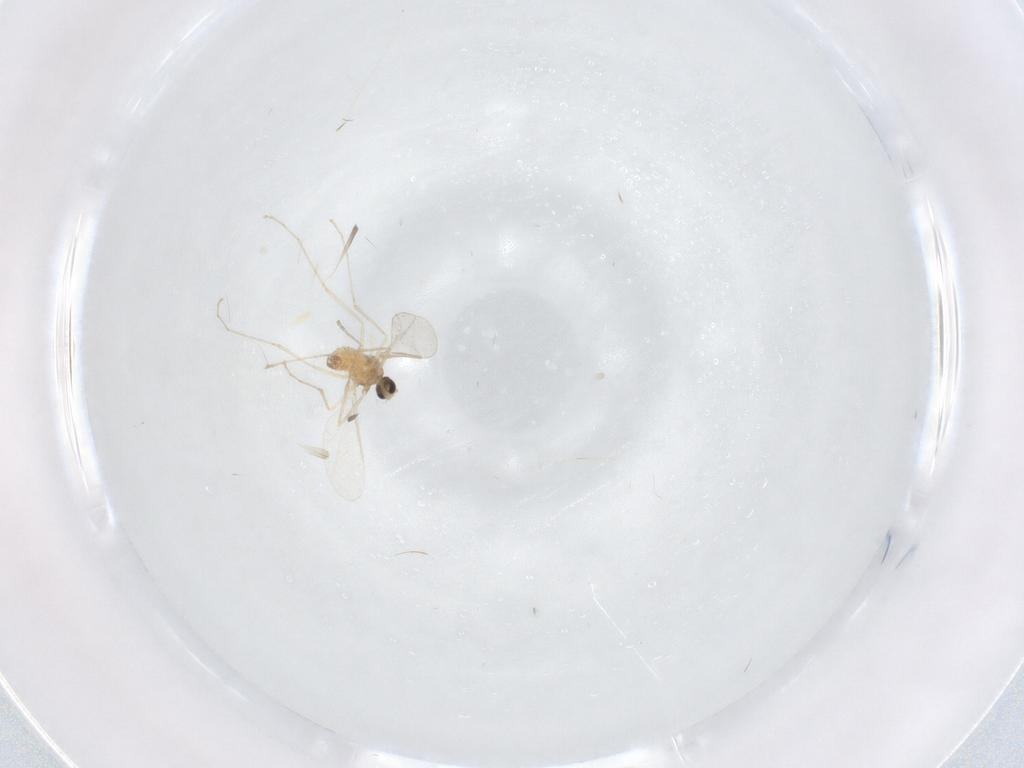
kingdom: Animalia
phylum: Arthropoda
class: Insecta
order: Diptera
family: Cecidomyiidae
